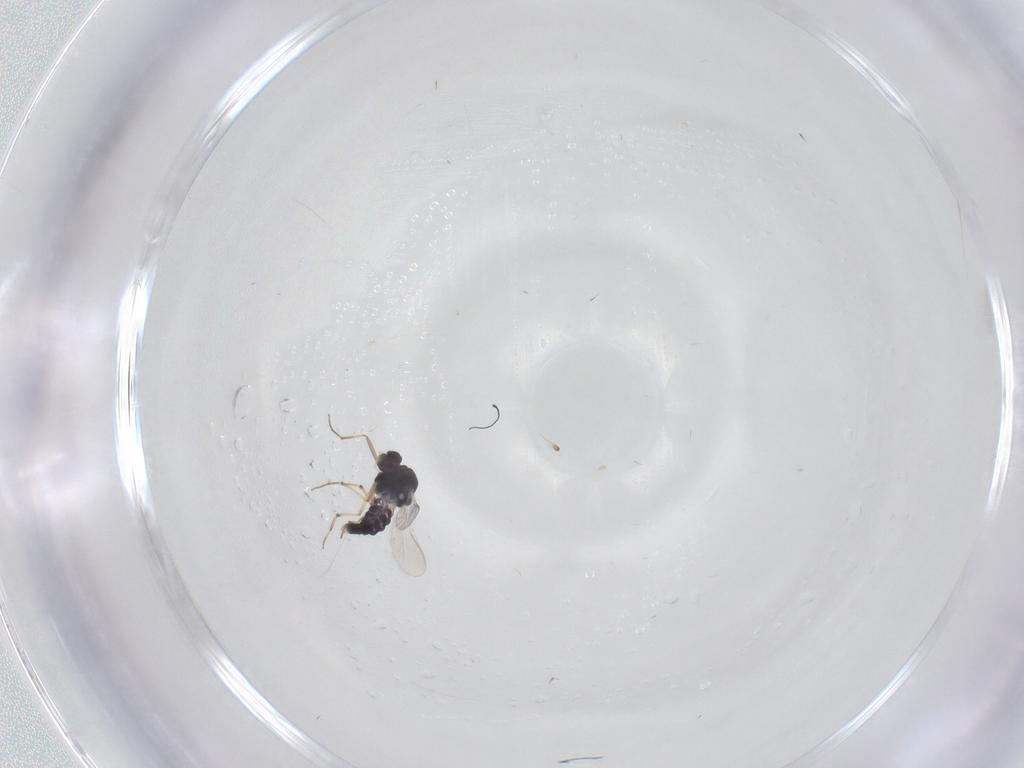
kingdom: Animalia
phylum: Arthropoda
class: Insecta
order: Diptera
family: Chironomidae
